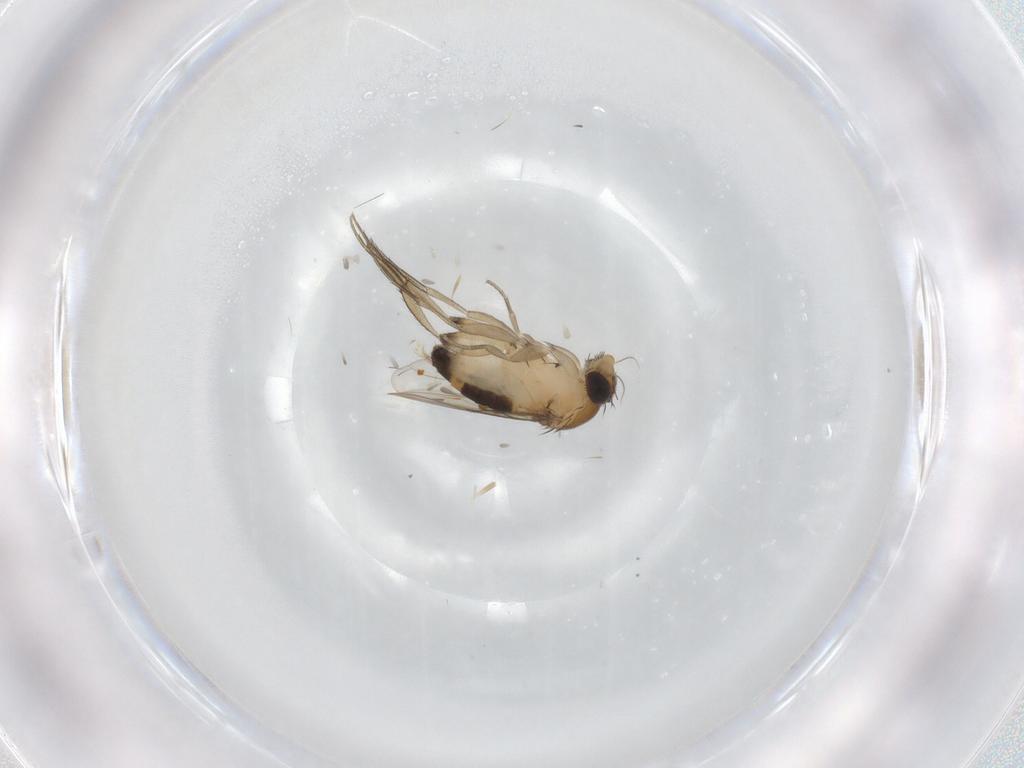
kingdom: Animalia
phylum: Arthropoda
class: Insecta
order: Diptera
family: Phoridae
